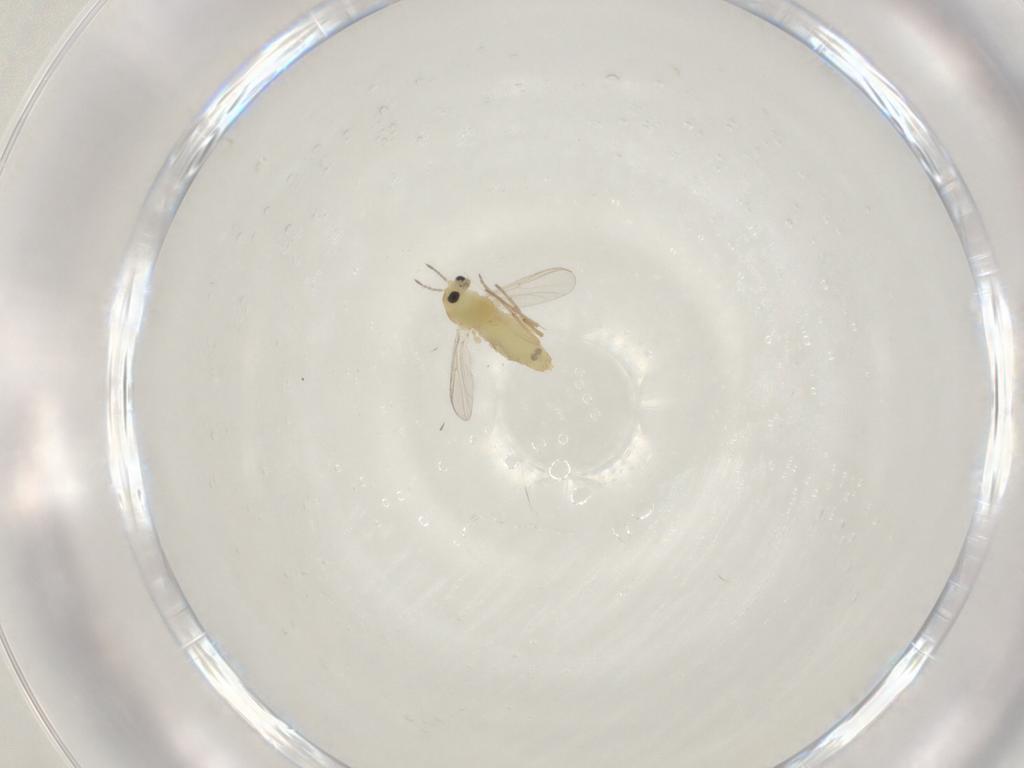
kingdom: Animalia
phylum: Arthropoda
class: Insecta
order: Diptera
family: Chironomidae
